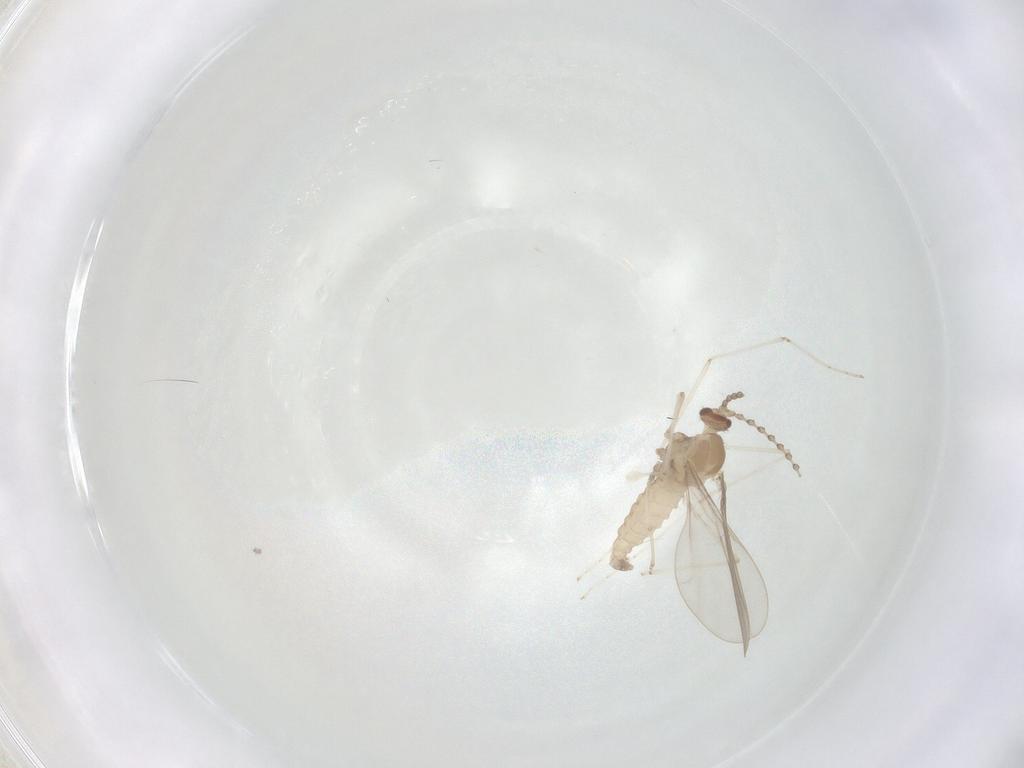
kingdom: Animalia
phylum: Arthropoda
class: Insecta
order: Diptera
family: Cecidomyiidae
